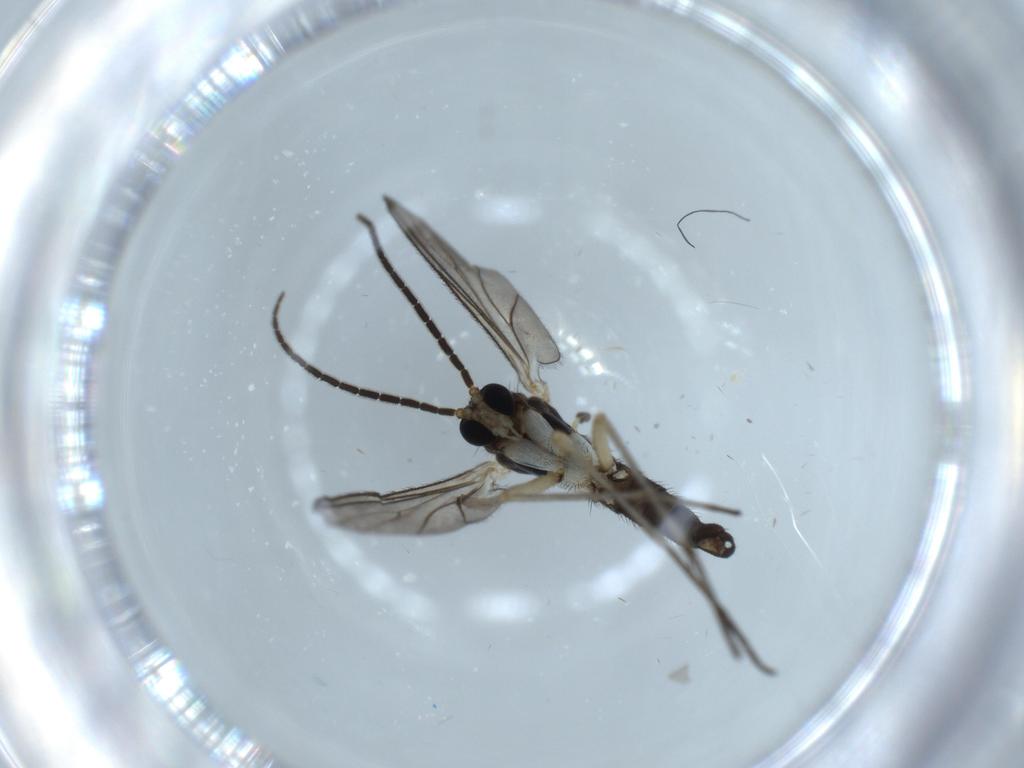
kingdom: Animalia
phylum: Arthropoda
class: Insecta
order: Diptera
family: Sciaridae
